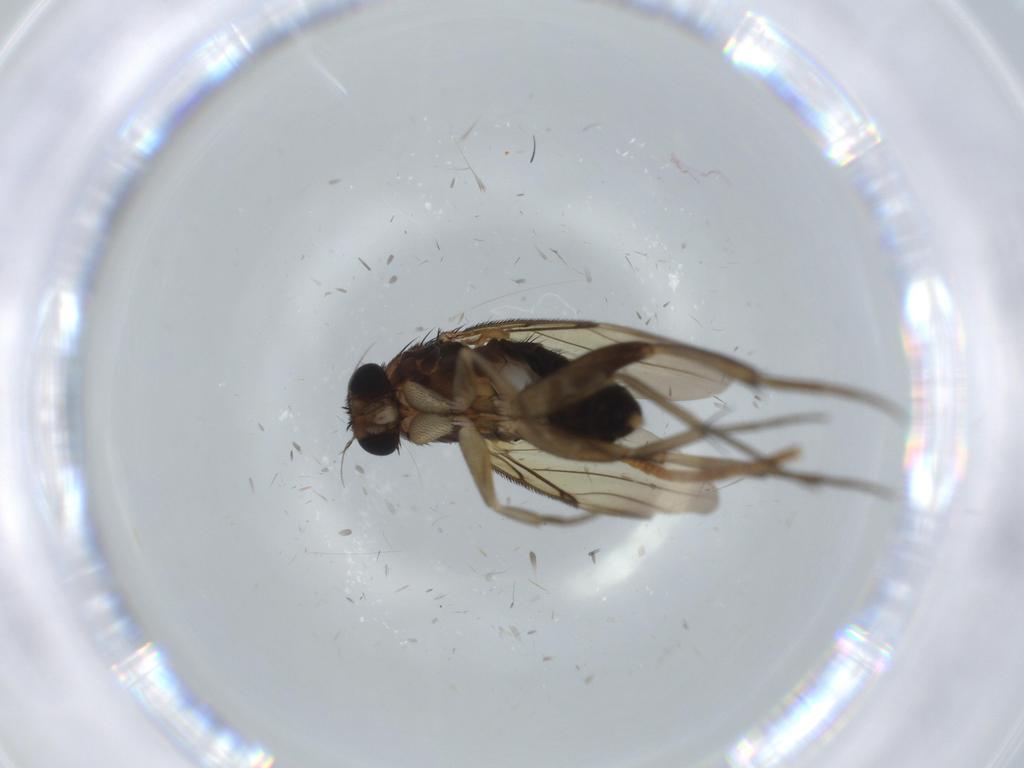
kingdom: Animalia
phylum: Arthropoda
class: Insecta
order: Diptera
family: Phoridae
